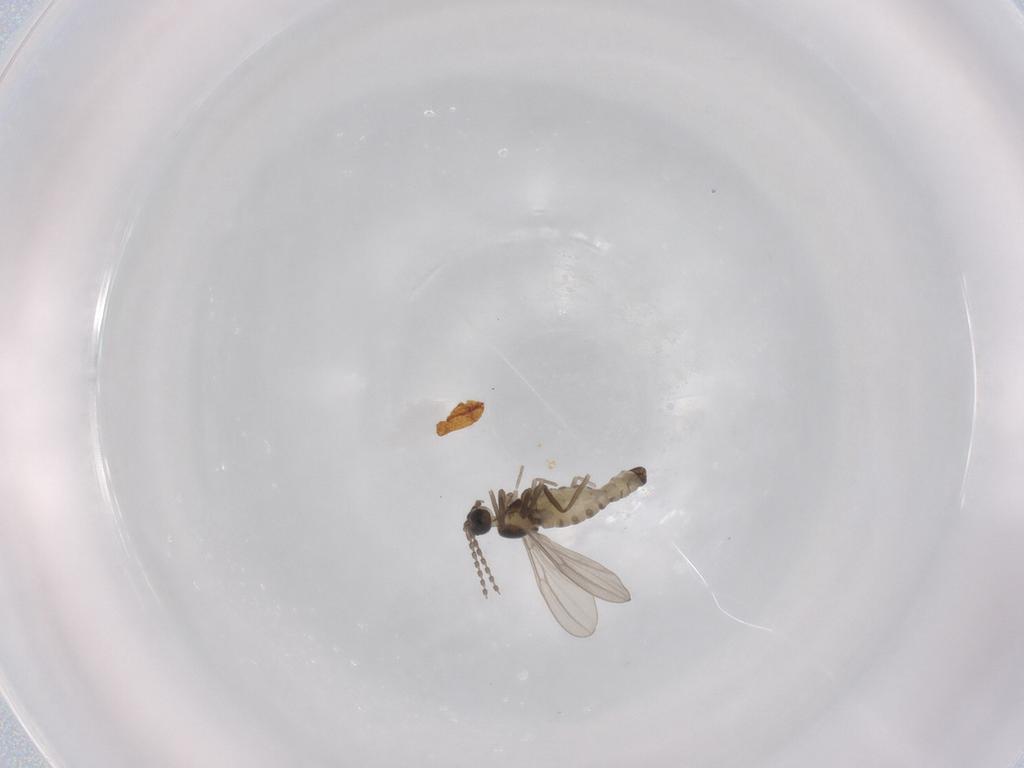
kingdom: Animalia
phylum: Arthropoda
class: Insecta
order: Diptera
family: Cecidomyiidae
